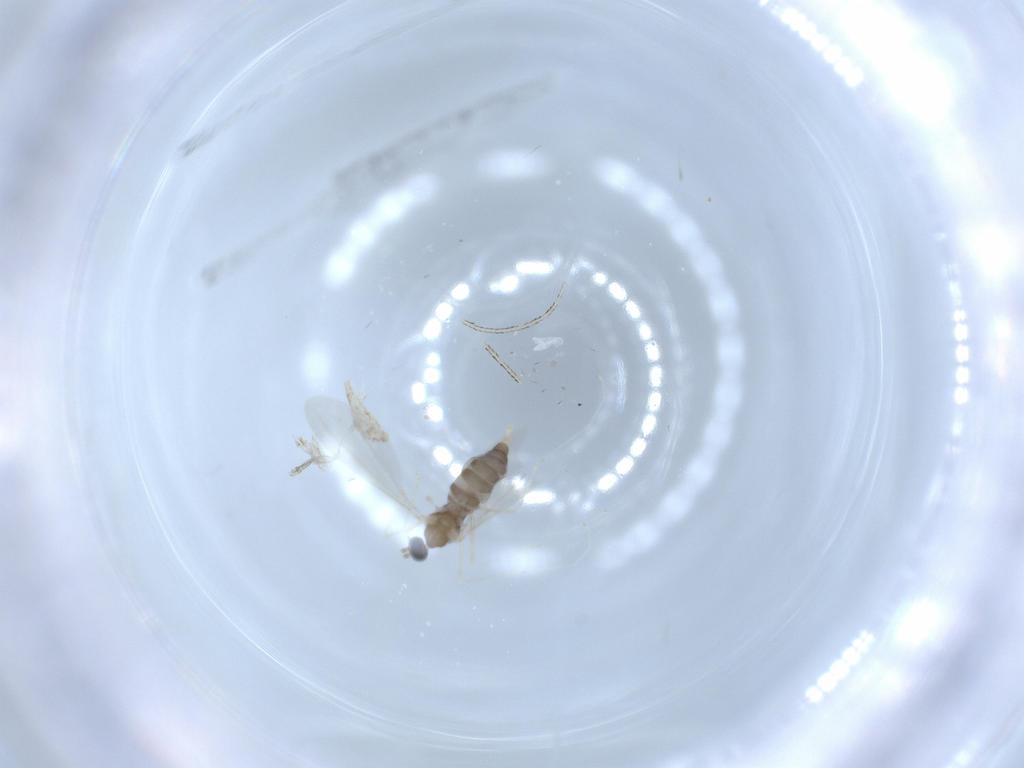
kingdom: Animalia
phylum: Arthropoda
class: Insecta
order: Diptera
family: Cecidomyiidae
